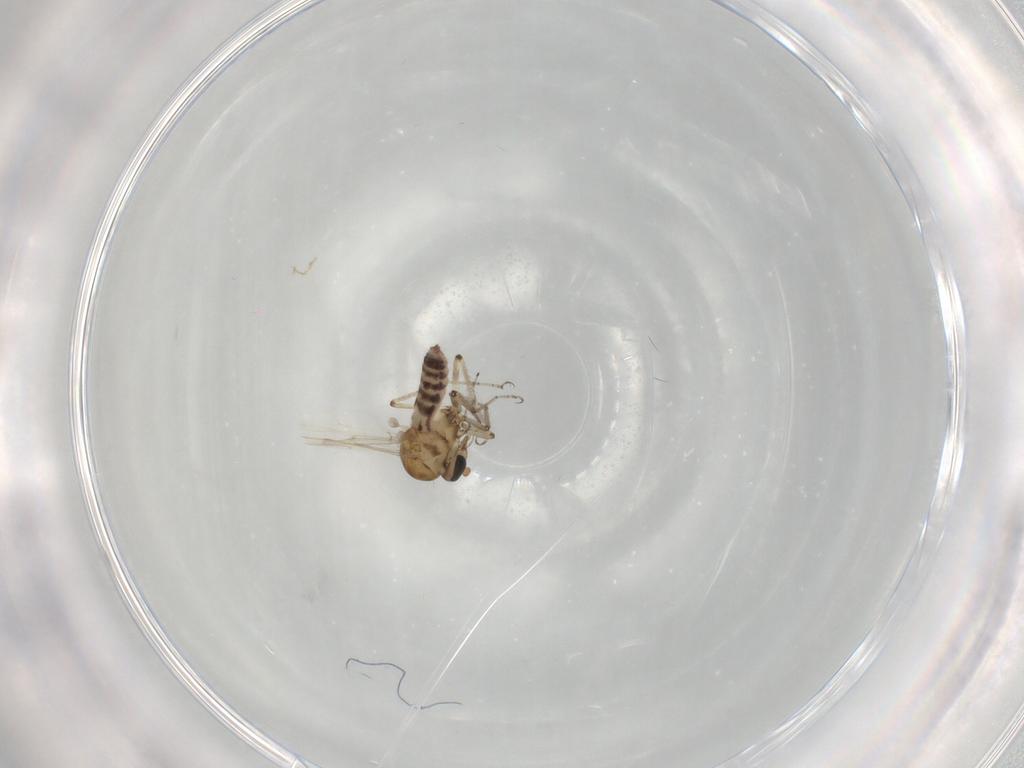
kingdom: Animalia
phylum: Arthropoda
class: Insecta
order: Diptera
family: Ceratopogonidae
